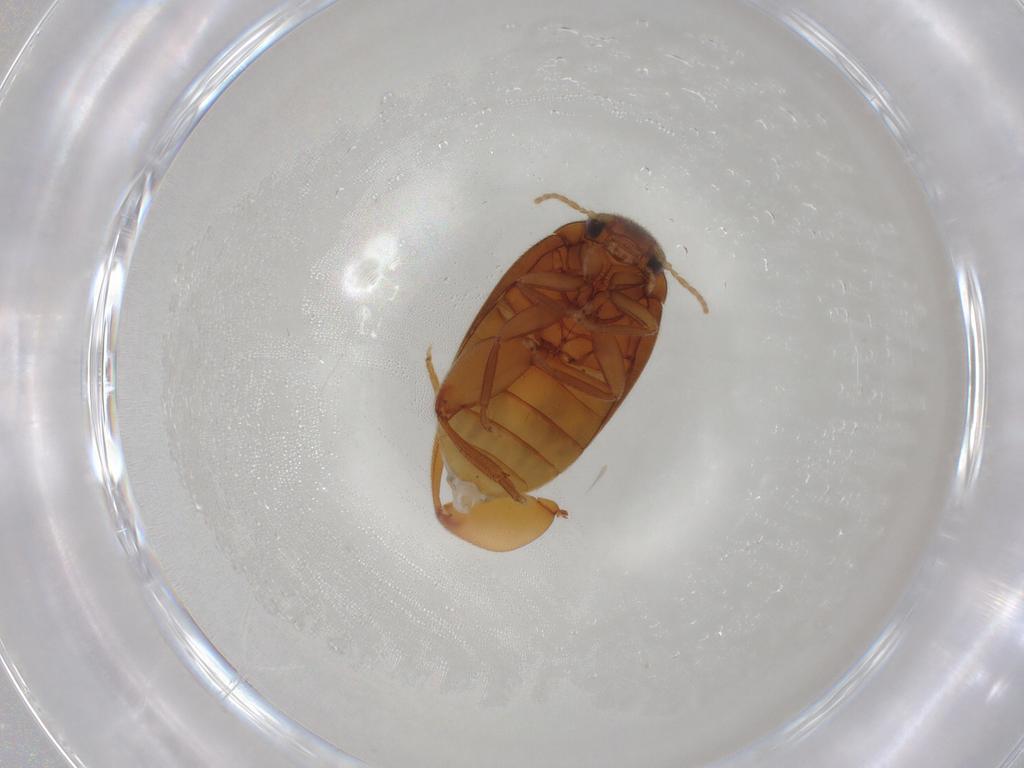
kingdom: Animalia
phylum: Arthropoda
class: Insecta
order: Coleoptera
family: Scirtidae
